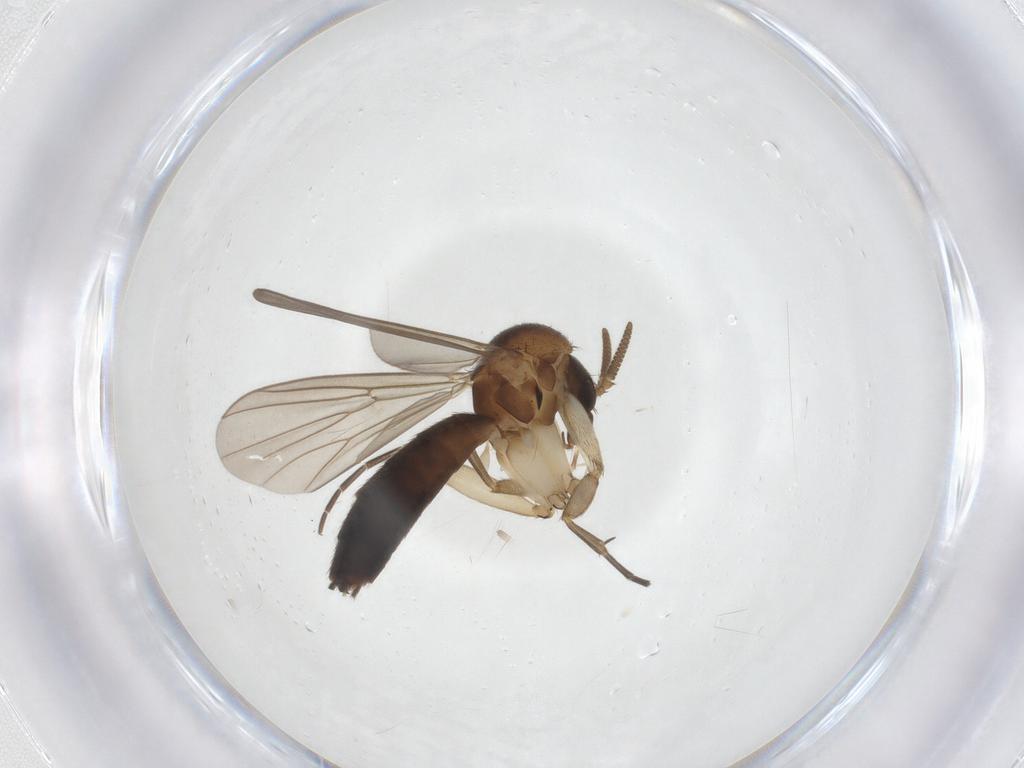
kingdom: Animalia
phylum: Arthropoda
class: Insecta
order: Diptera
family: Mycetophilidae
